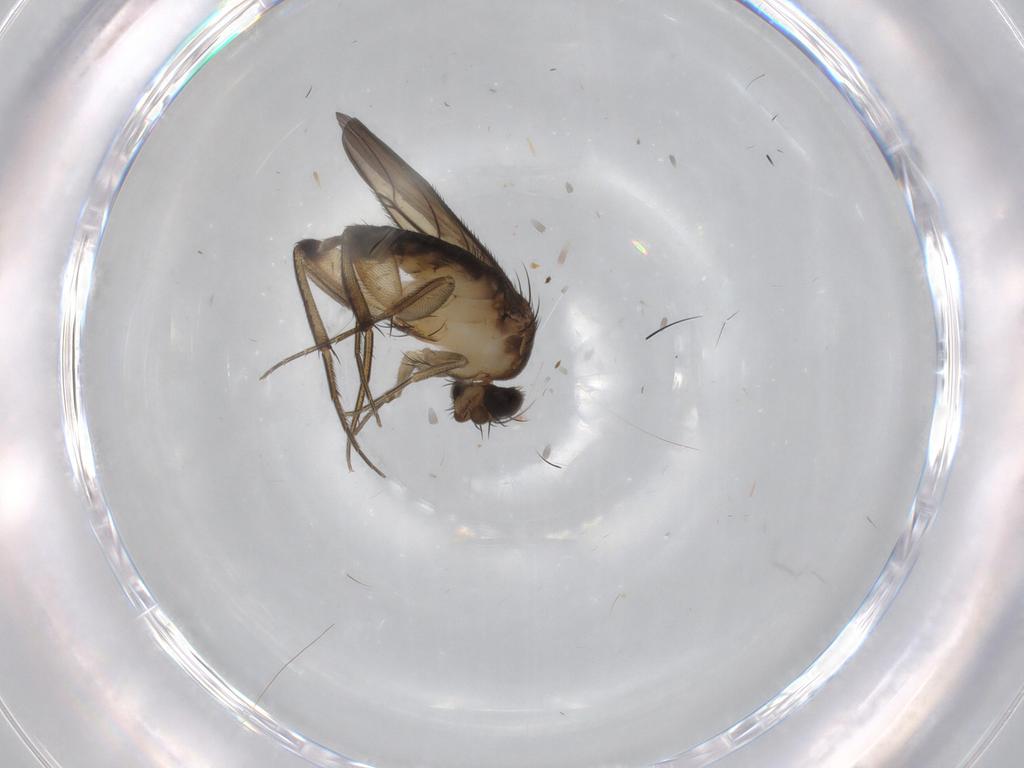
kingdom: Animalia
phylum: Arthropoda
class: Insecta
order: Diptera
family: Phoridae
